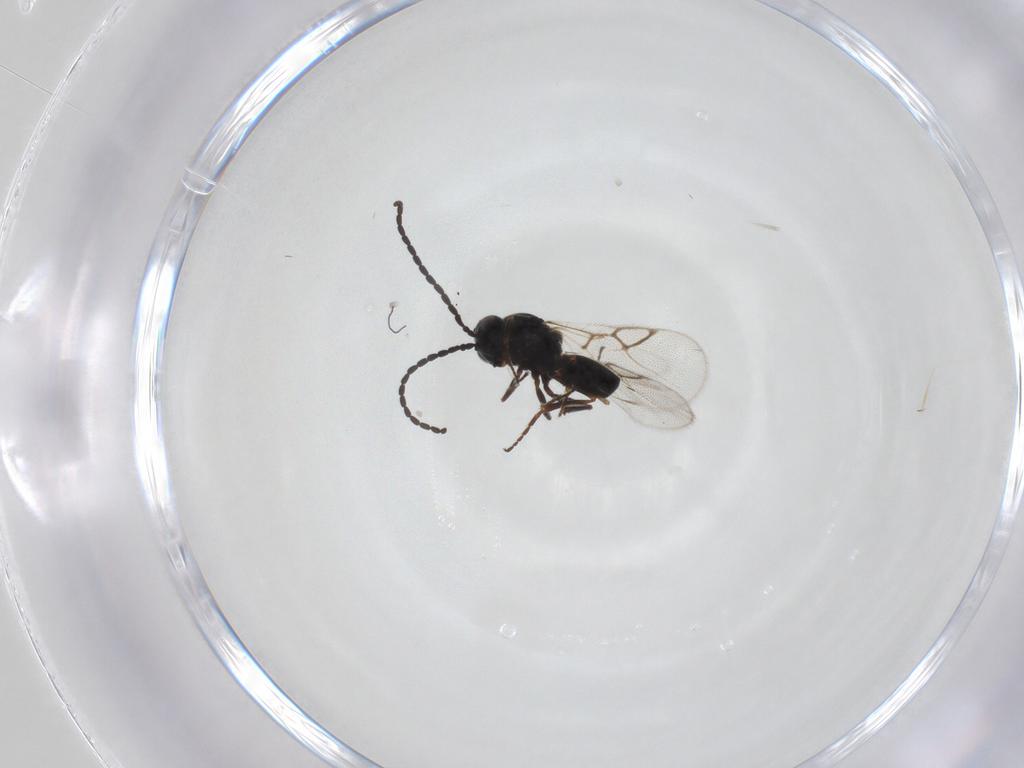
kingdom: Animalia
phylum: Arthropoda
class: Insecta
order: Hymenoptera
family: Figitidae
